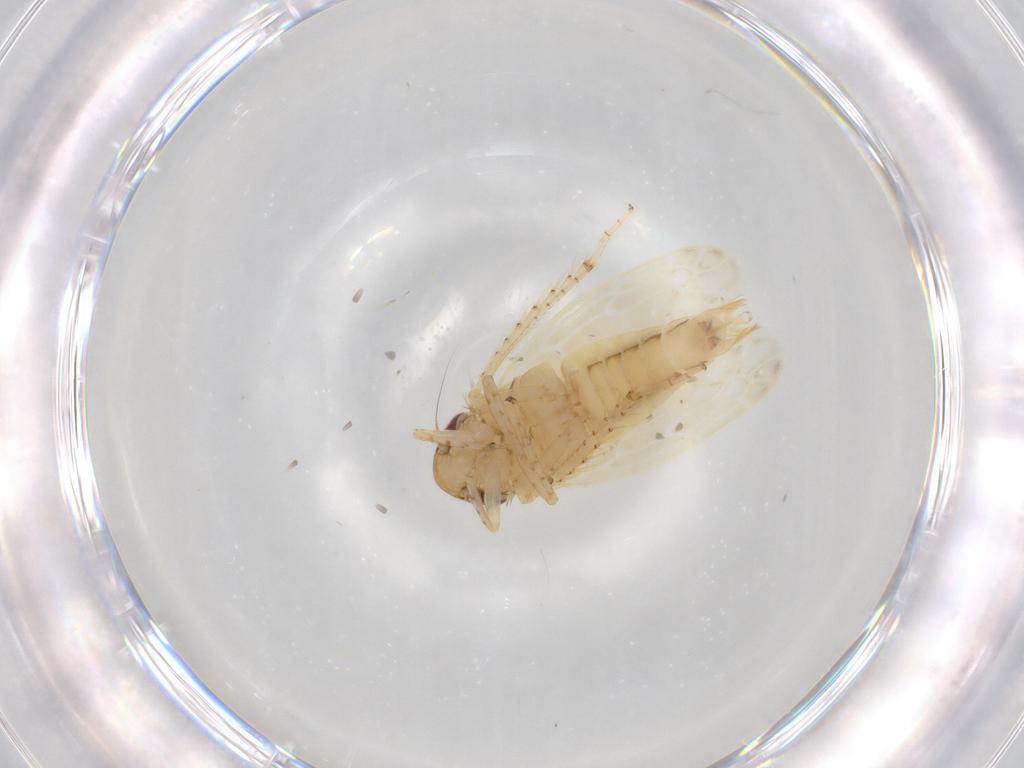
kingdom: Animalia
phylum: Arthropoda
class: Insecta
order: Hemiptera
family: Cicadellidae
